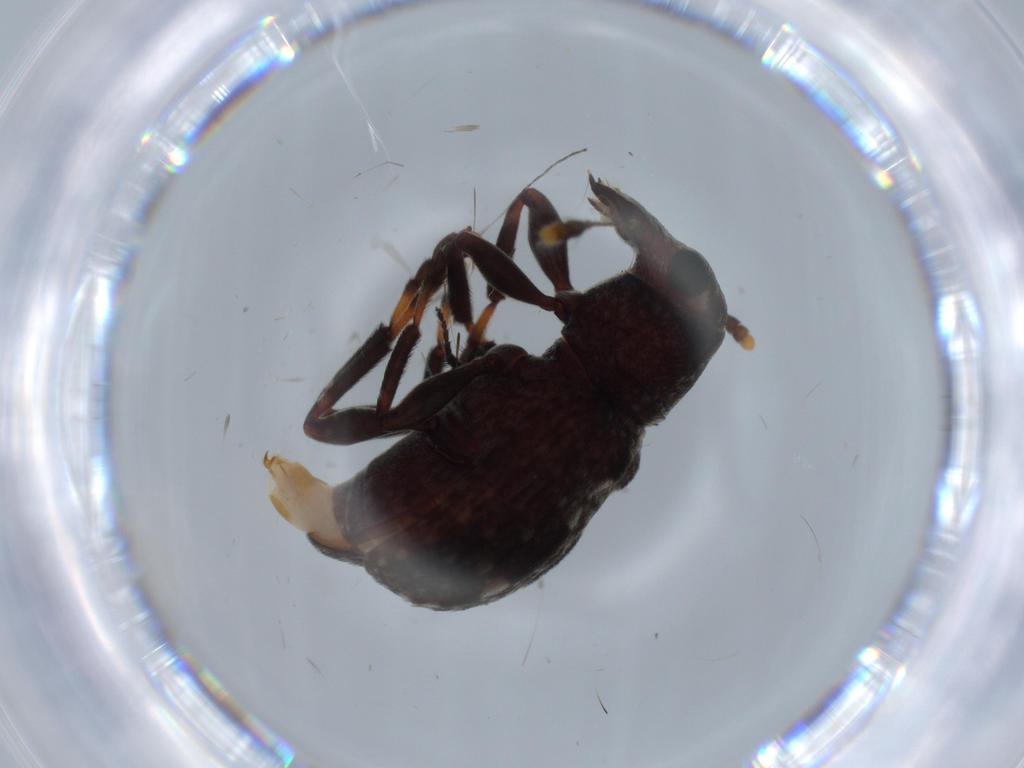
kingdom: Animalia
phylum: Arthropoda
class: Insecta
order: Coleoptera
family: Anthribidae
